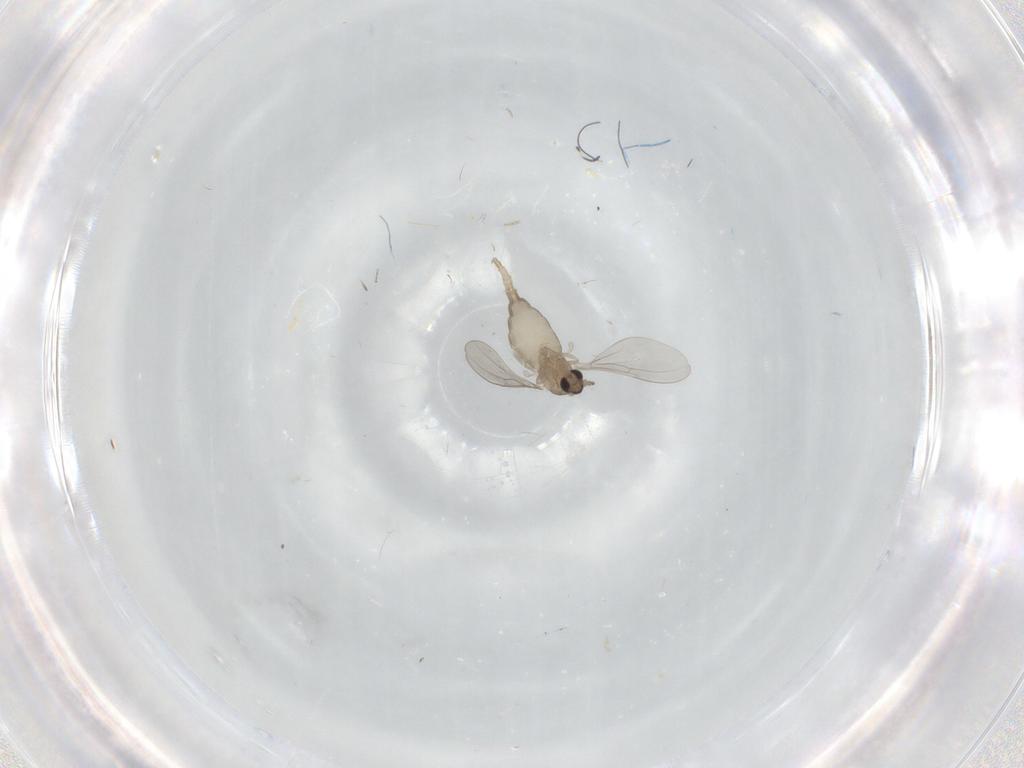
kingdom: Animalia
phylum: Arthropoda
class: Insecta
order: Diptera
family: Cecidomyiidae
